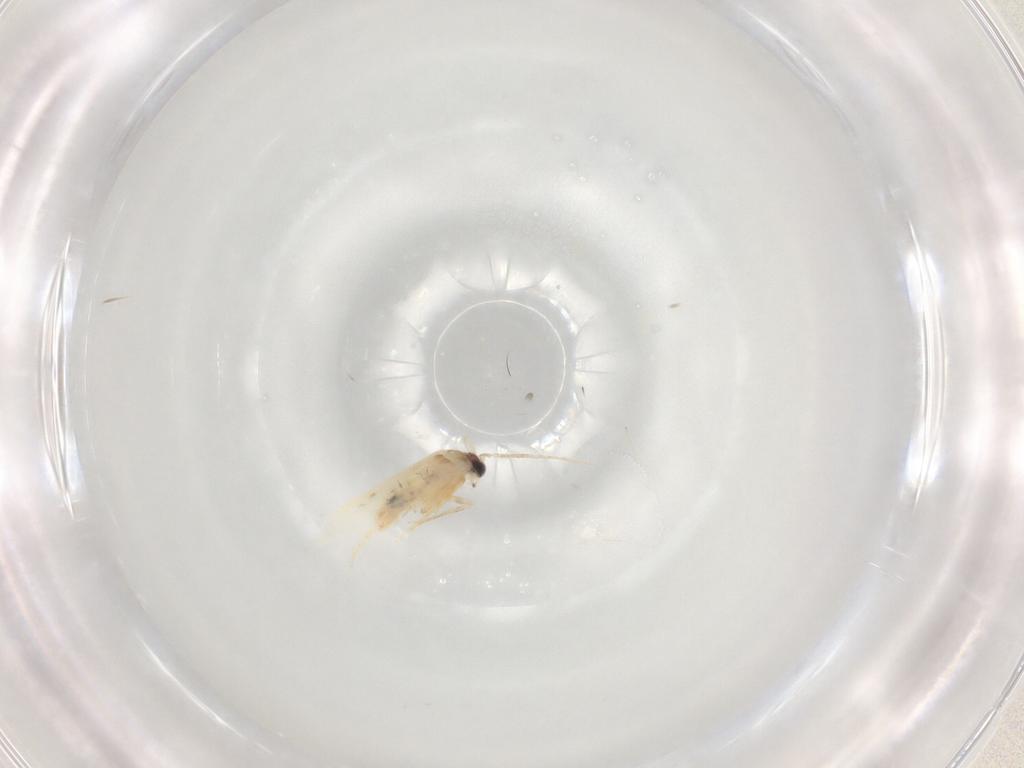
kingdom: Animalia
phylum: Arthropoda
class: Insecta
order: Lepidoptera
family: Nepticulidae
